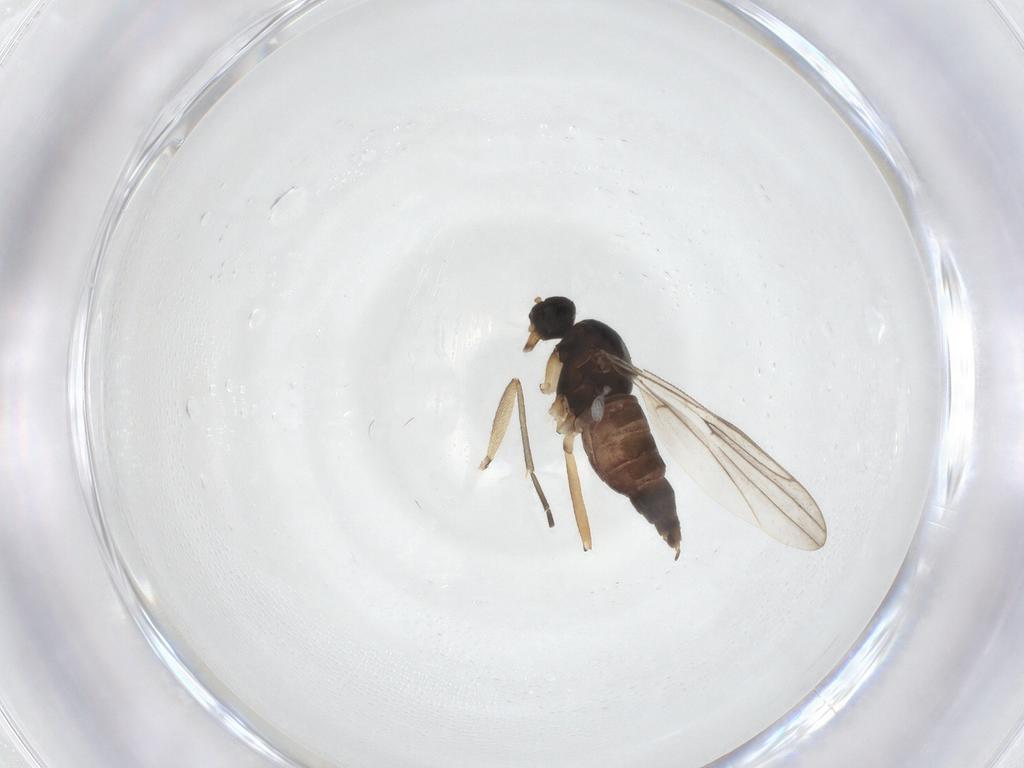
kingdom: Animalia
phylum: Arthropoda
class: Insecta
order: Diptera
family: Hybotidae
